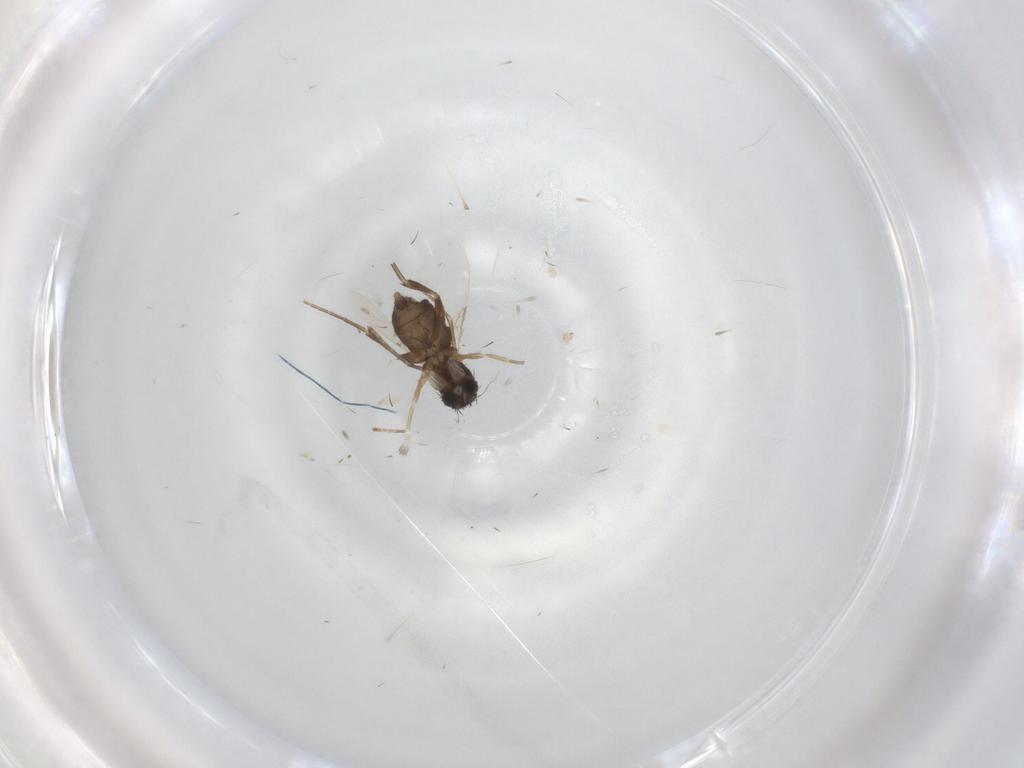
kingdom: Animalia
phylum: Arthropoda
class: Insecta
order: Diptera
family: Phoridae
